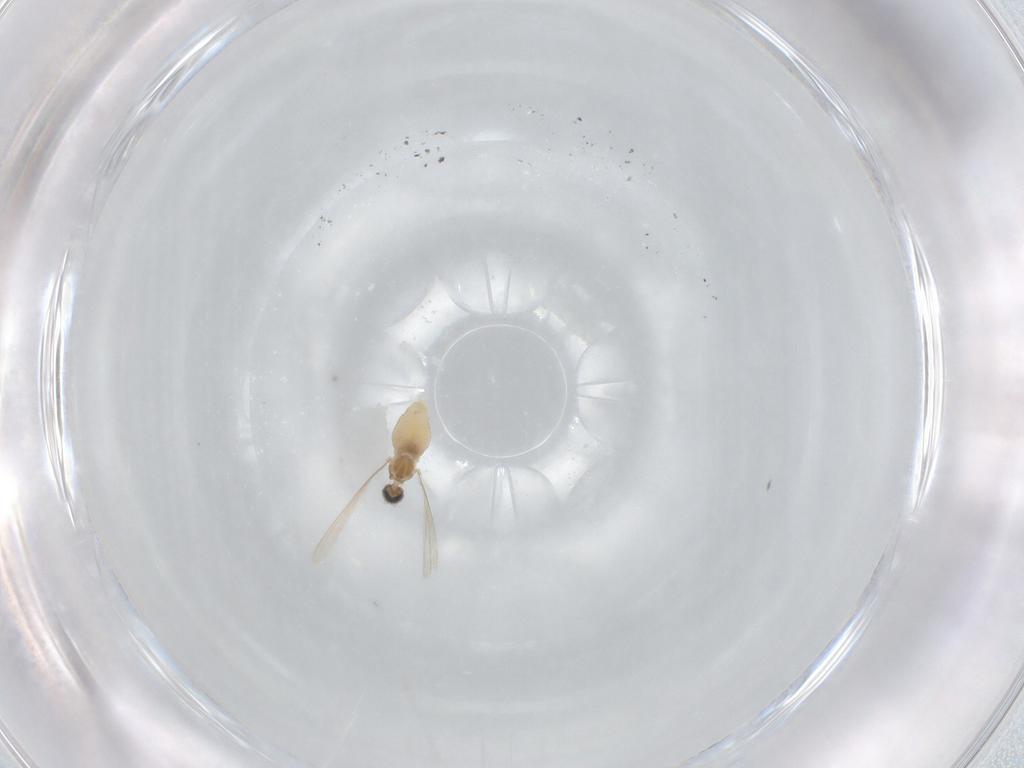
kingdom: Animalia
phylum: Arthropoda
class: Insecta
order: Diptera
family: Cecidomyiidae
